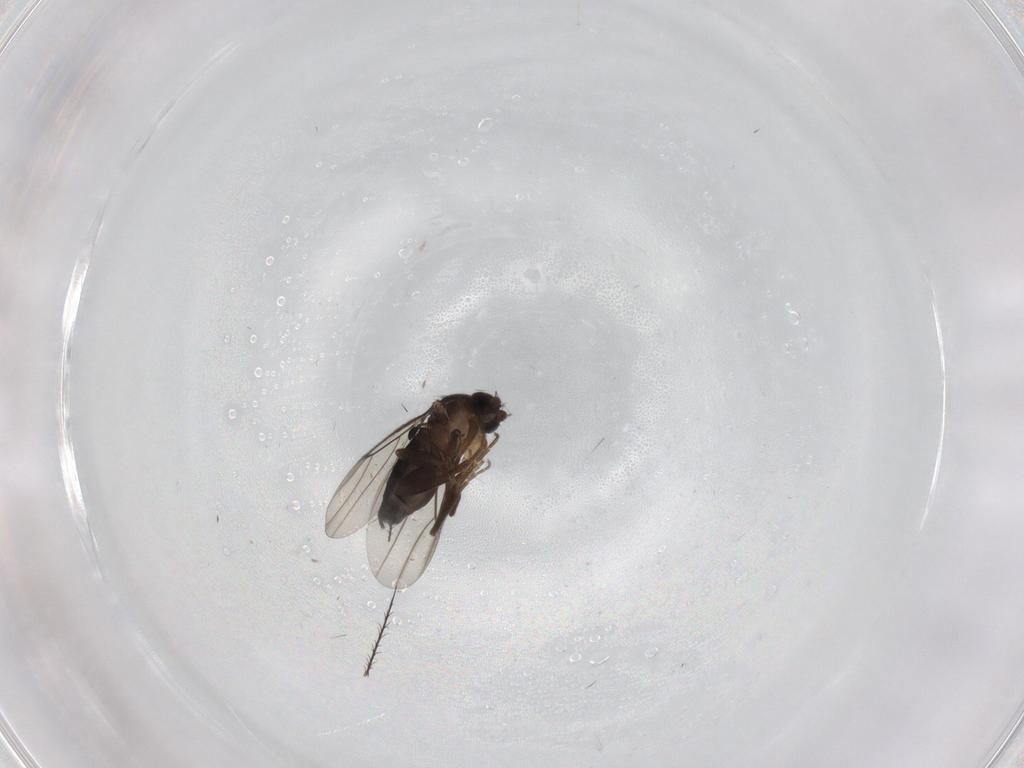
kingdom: Animalia
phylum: Arthropoda
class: Insecta
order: Diptera
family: Phoridae
